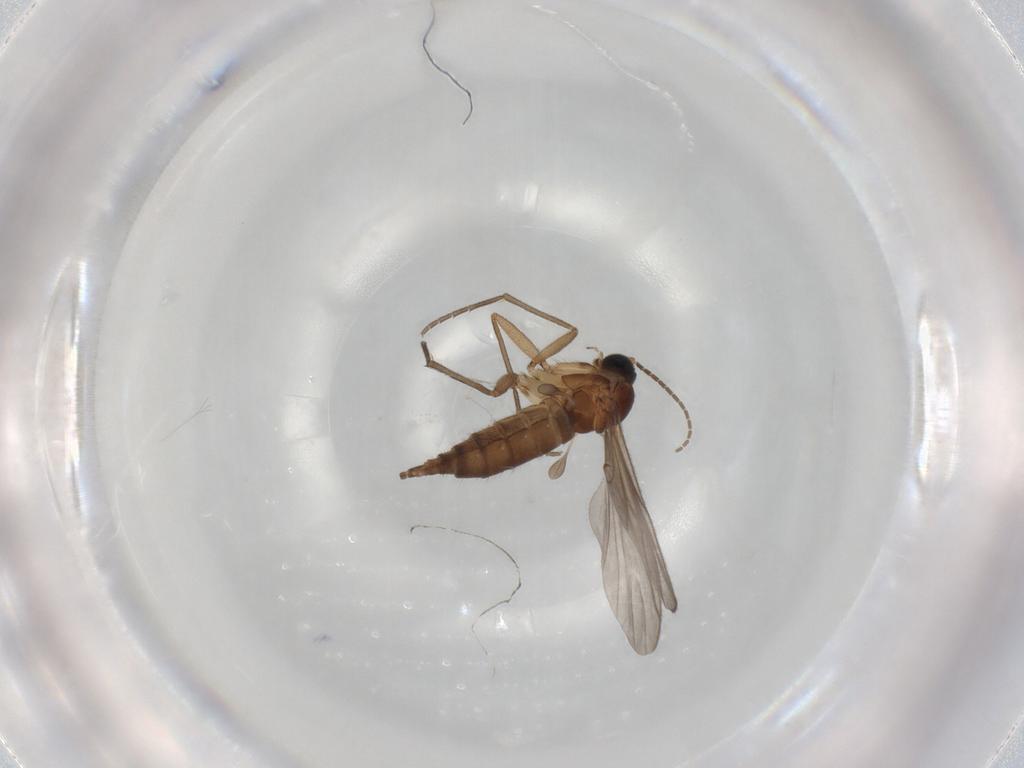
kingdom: Animalia
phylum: Arthropoda
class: Insecta
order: Diptera
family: Sciaridae
